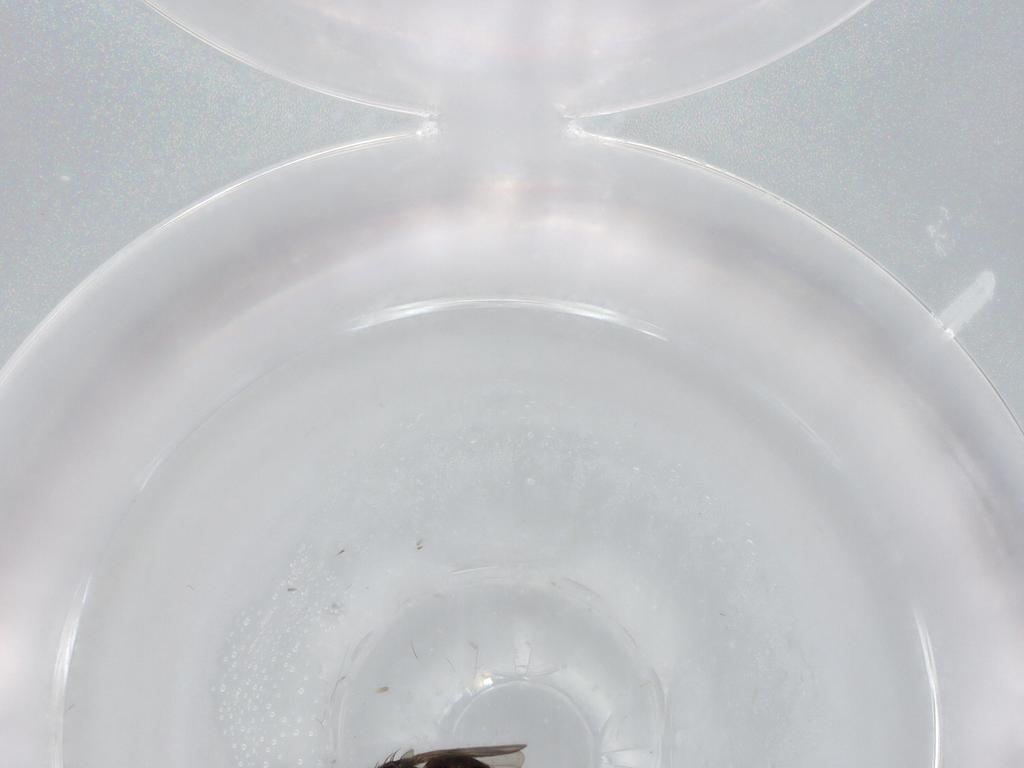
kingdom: Animalia
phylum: Arthropoda
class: Insecta
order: Diptera
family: Sphaeroceridae
